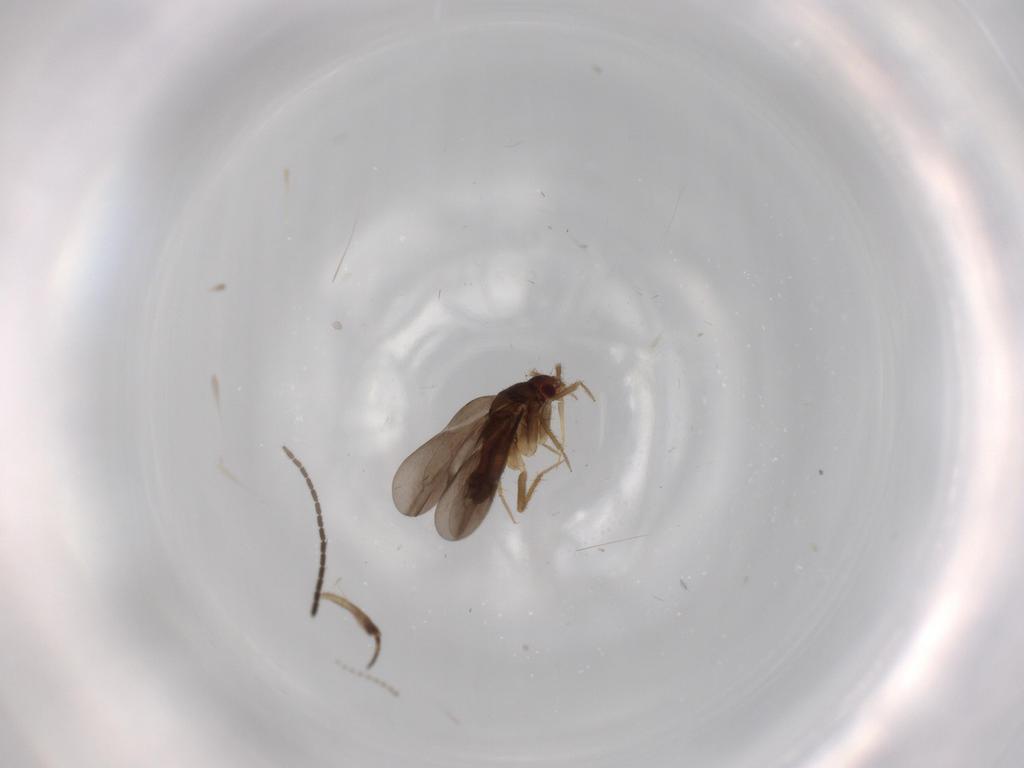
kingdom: Animalia
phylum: Arthropoda
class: Insecta
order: Hemiptera
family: Ceratocombidae
